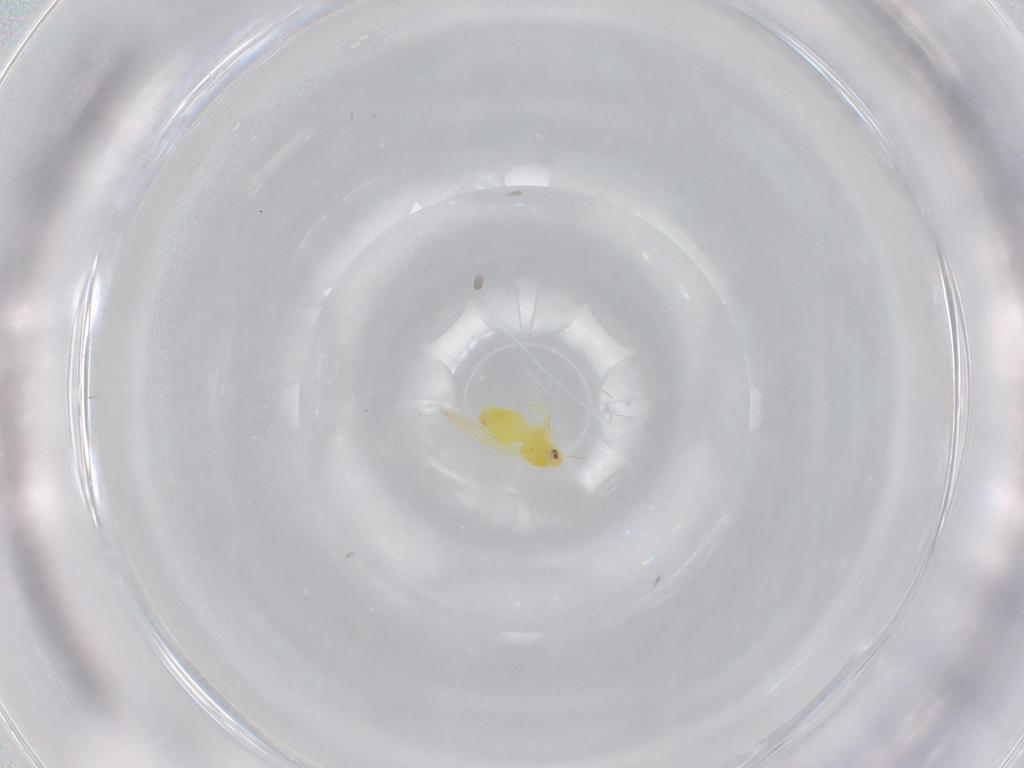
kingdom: Animalia
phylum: Arthropoda
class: Insecta
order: Hemiptera
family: Aleyrodidae
